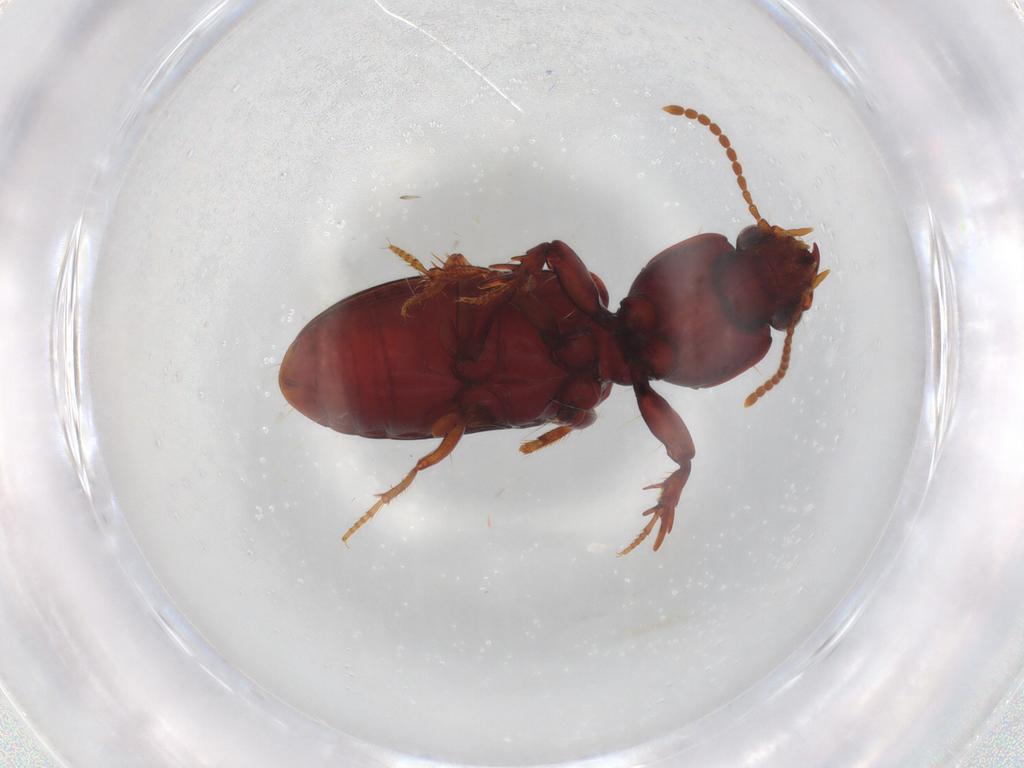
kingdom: Animalia
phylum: Arthropoda
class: Insecta
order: Coleoptera
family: Carabidae
